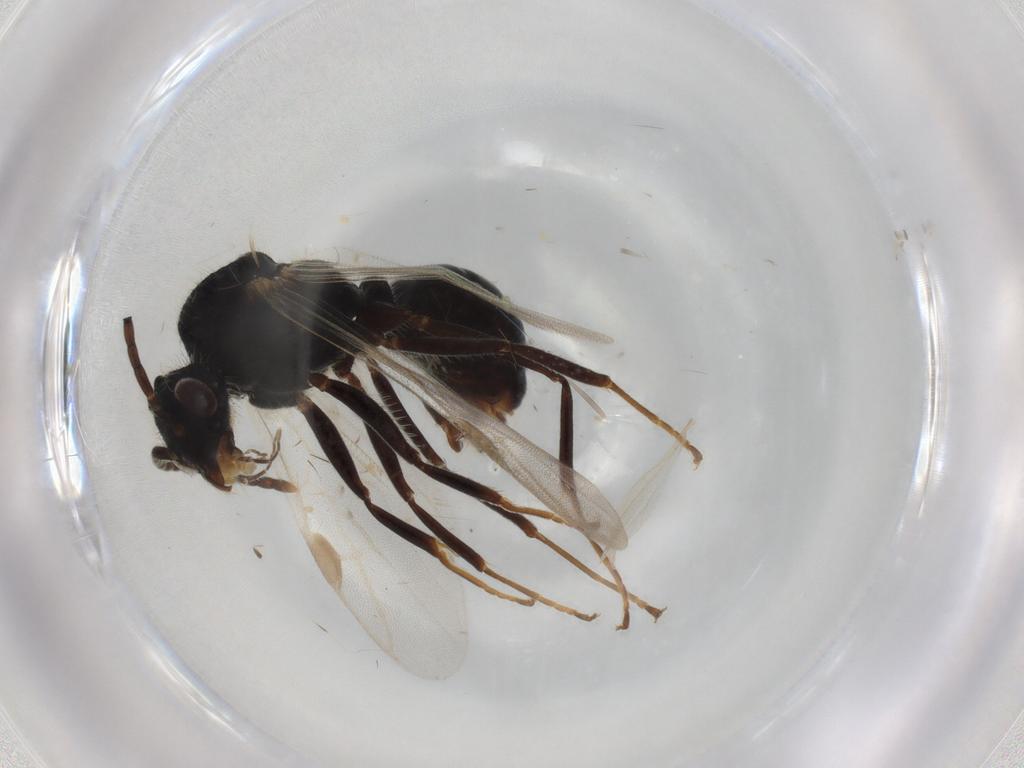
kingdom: Animalia
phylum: Arthropoda
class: Insecta
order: Hymenoptera
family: Formicidae
